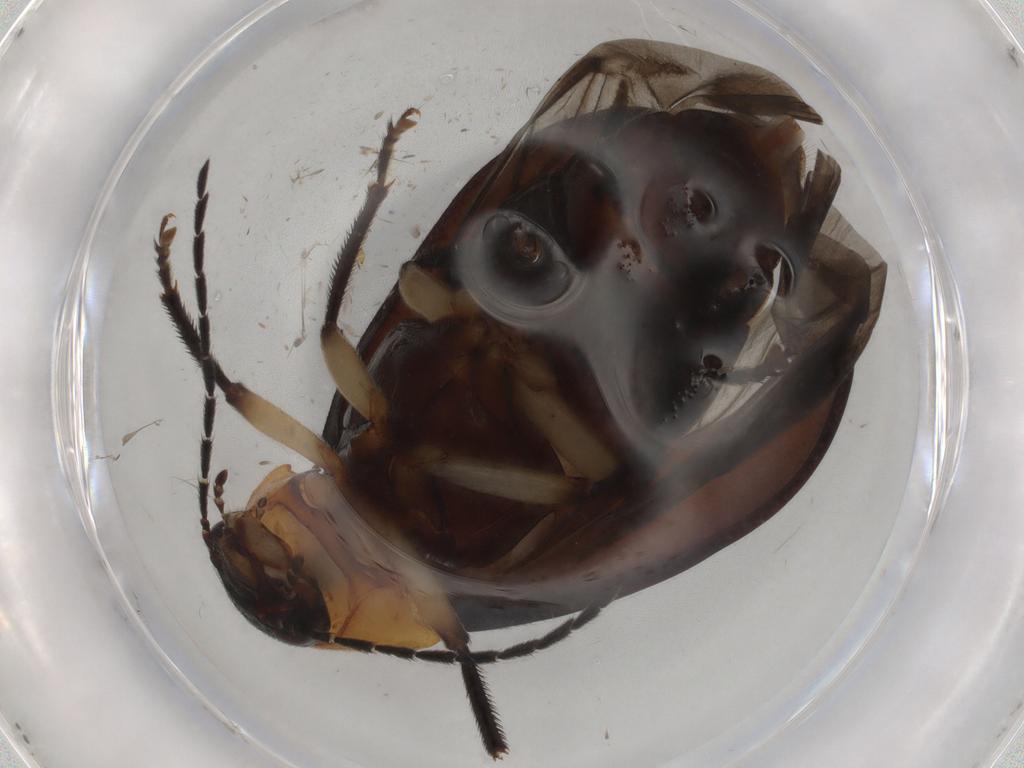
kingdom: Animalia
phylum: Arthropoda
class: Insecta
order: Coleoptera
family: Ptilodactylidae
